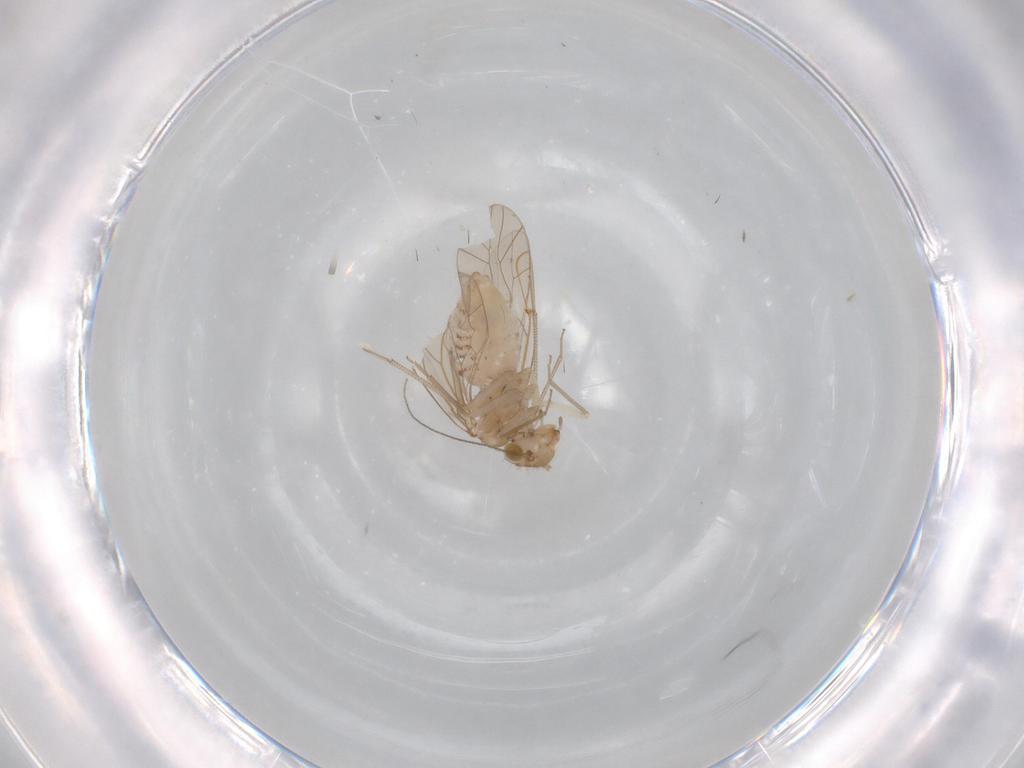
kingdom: Animalia
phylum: Arthropoda
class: Insecta
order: Psocodea
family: Lachesillidae
